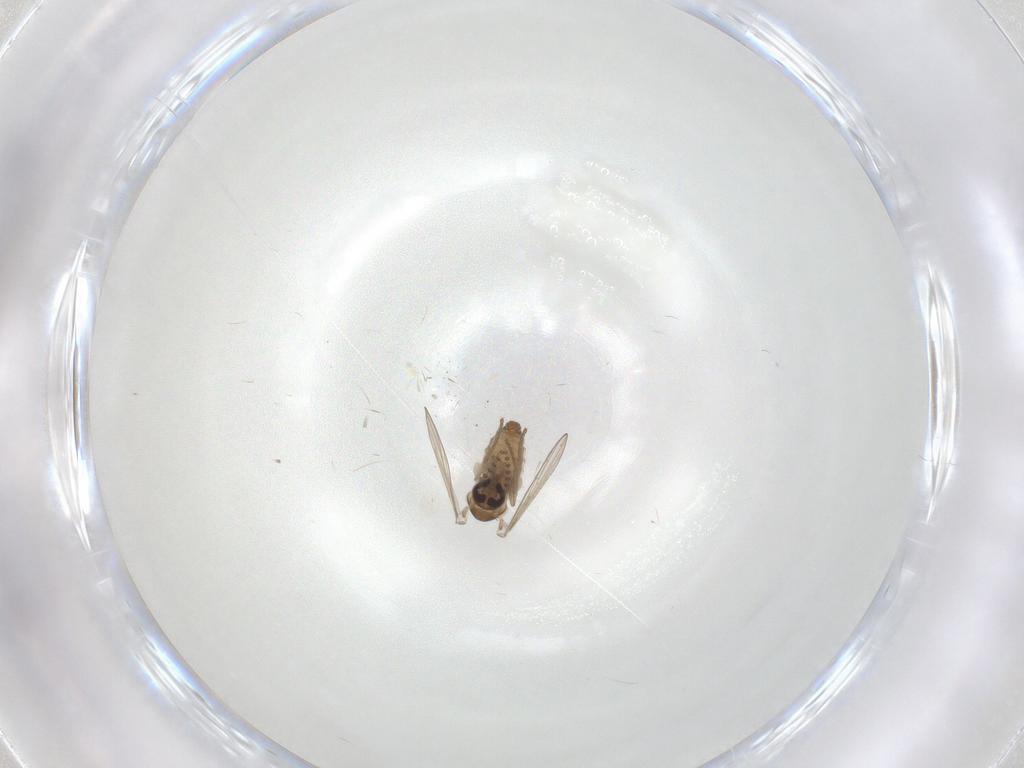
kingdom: Animalia
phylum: Arthropoda
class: Insecta
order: Diptera
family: Psychodidae
